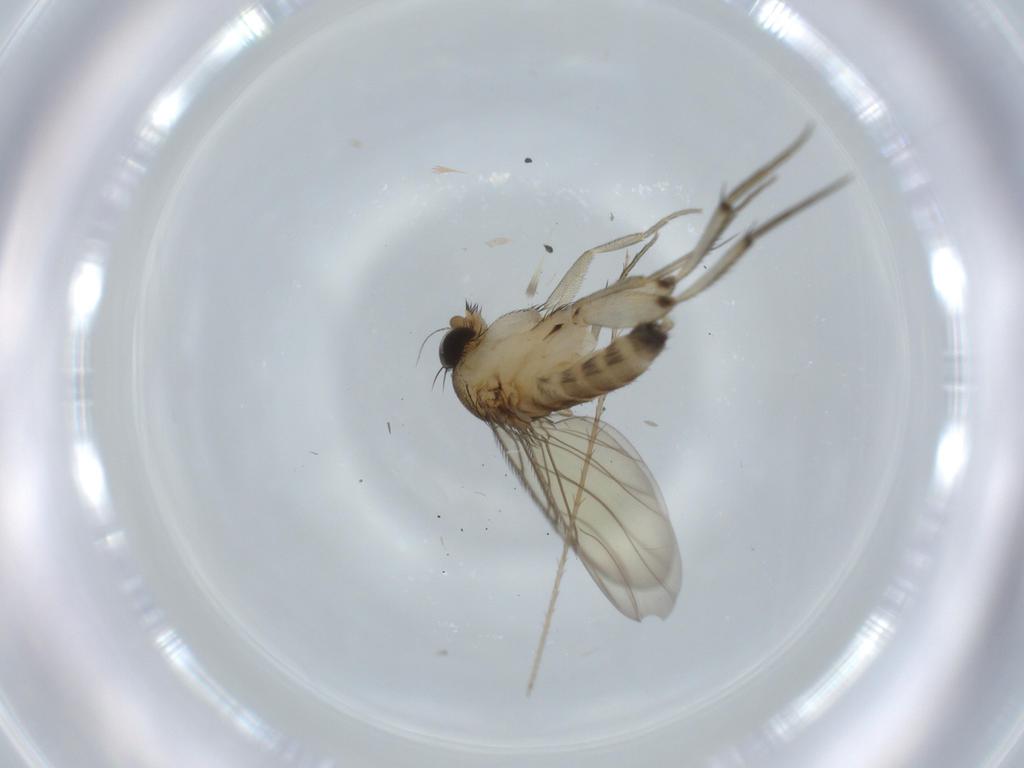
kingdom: Animalia
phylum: Arthropoda
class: Insecta
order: Diptera
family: Phoridae
